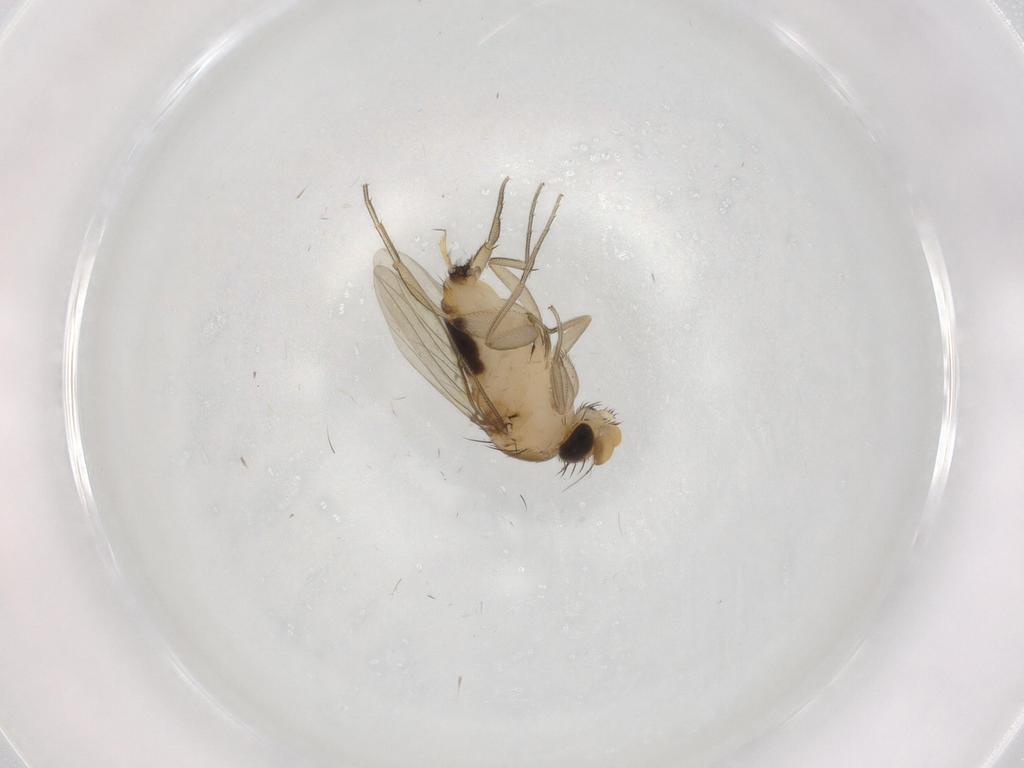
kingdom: Animalia
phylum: Arthropoda
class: Insecta
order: Diptera
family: Phoridae
